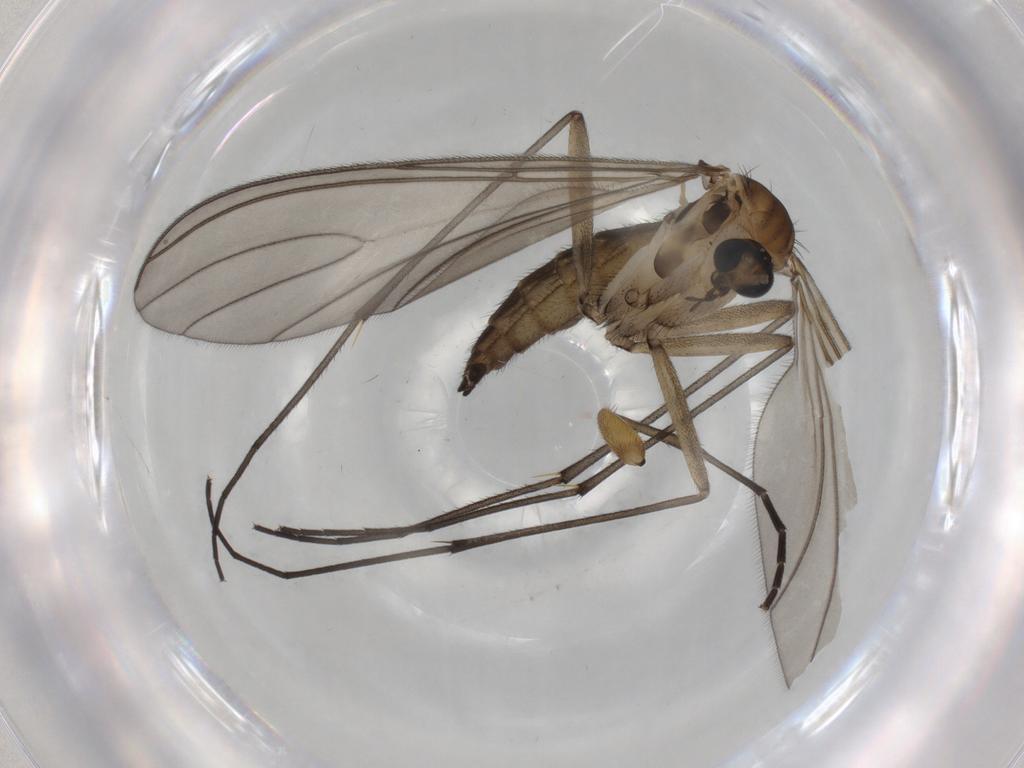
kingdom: Animalia
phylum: Arthropoda
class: Insecta
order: Diptera
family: Sciaridae
